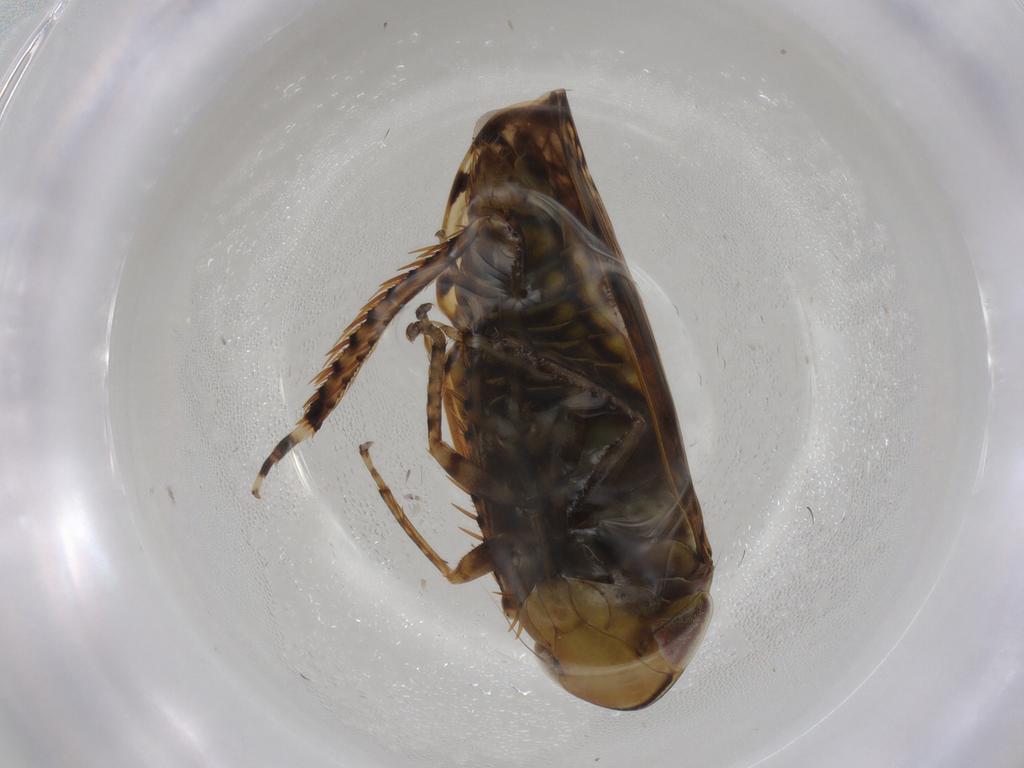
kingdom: Animalia
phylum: Arthropoda
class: Insecta
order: Hemiptera
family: Cicadellidae
